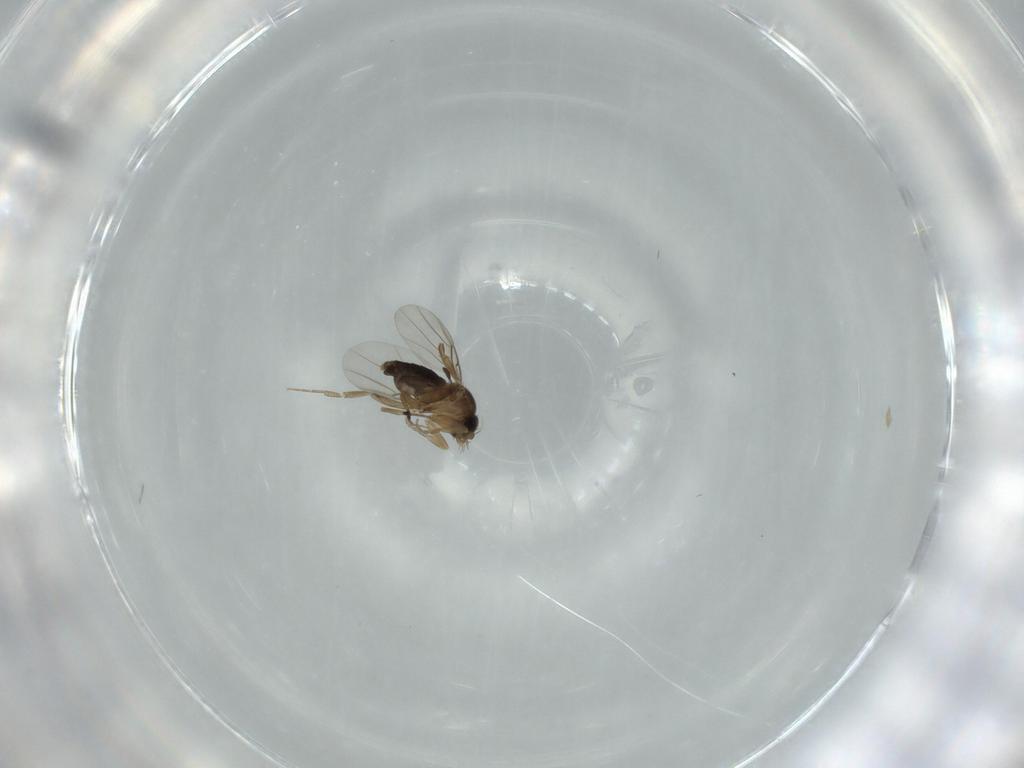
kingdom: Animalia
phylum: Arthropoda
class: Insecta
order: Diptera
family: Phoridae
